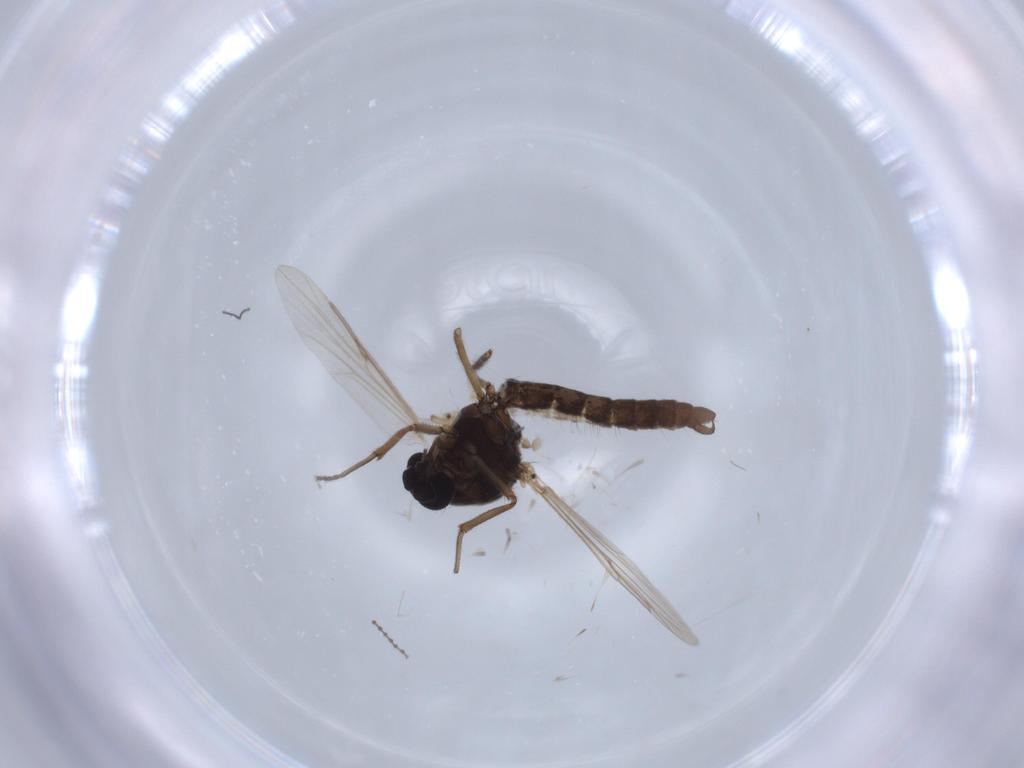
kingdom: Animalia
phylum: Arthropoda
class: Insecta
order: Diptera
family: Ceratopogonidae
